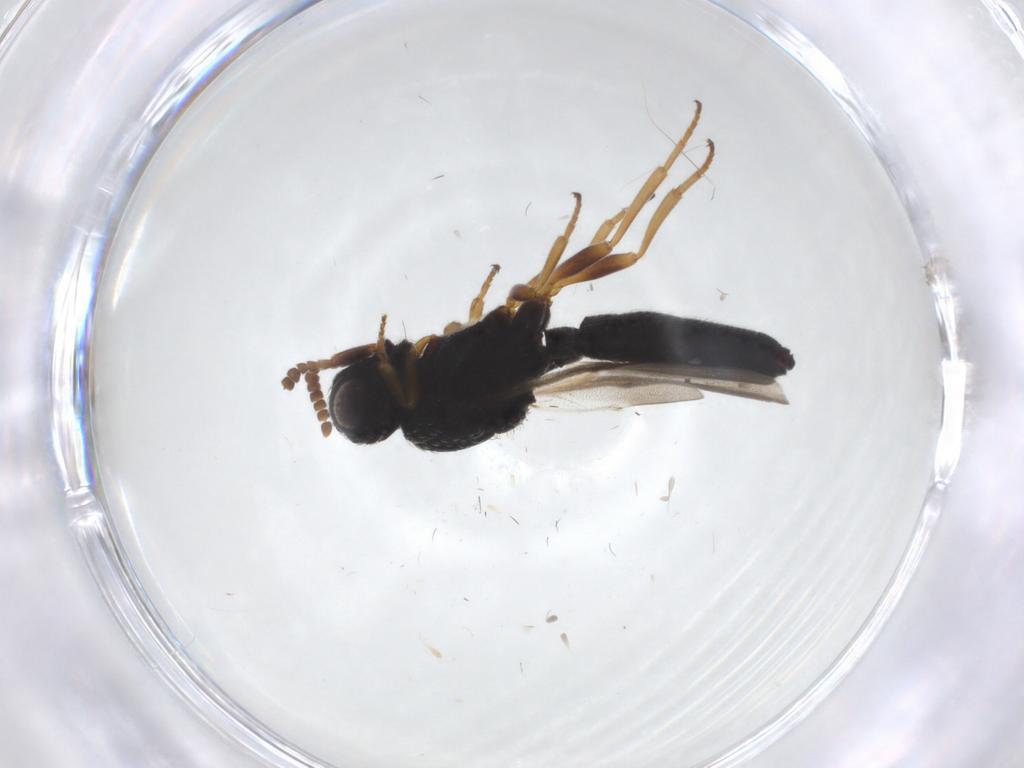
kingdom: Animalia
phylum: Arthropoda
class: Insecta
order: Hymenoptera
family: Scelionidae
